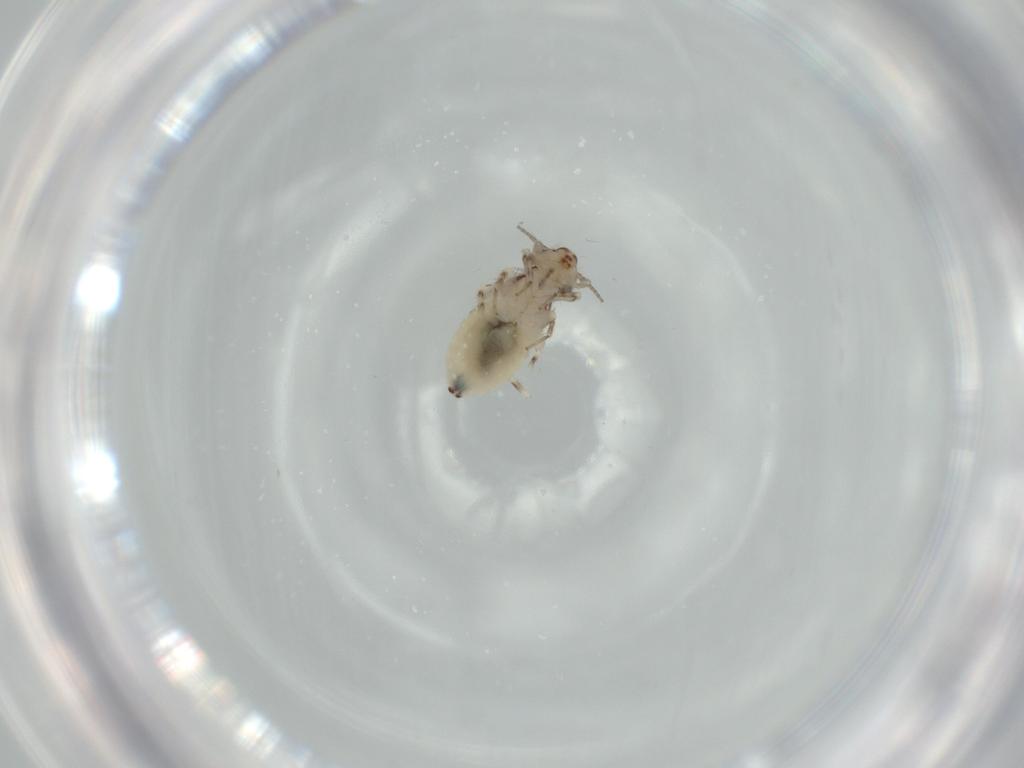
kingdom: Animalia
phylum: Arthropoda
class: Insecta
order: Psocodea
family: Lepidopsocidae
